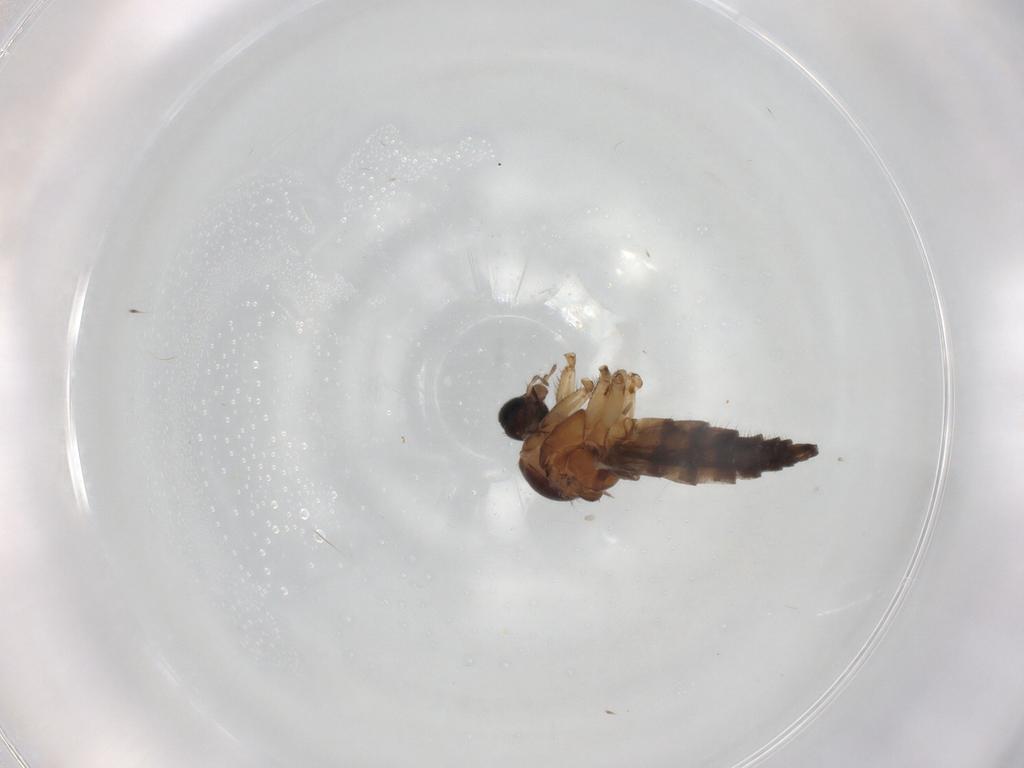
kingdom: Animalia
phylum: Arthropoda
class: Insecta
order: Diptera
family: Sciaridae
